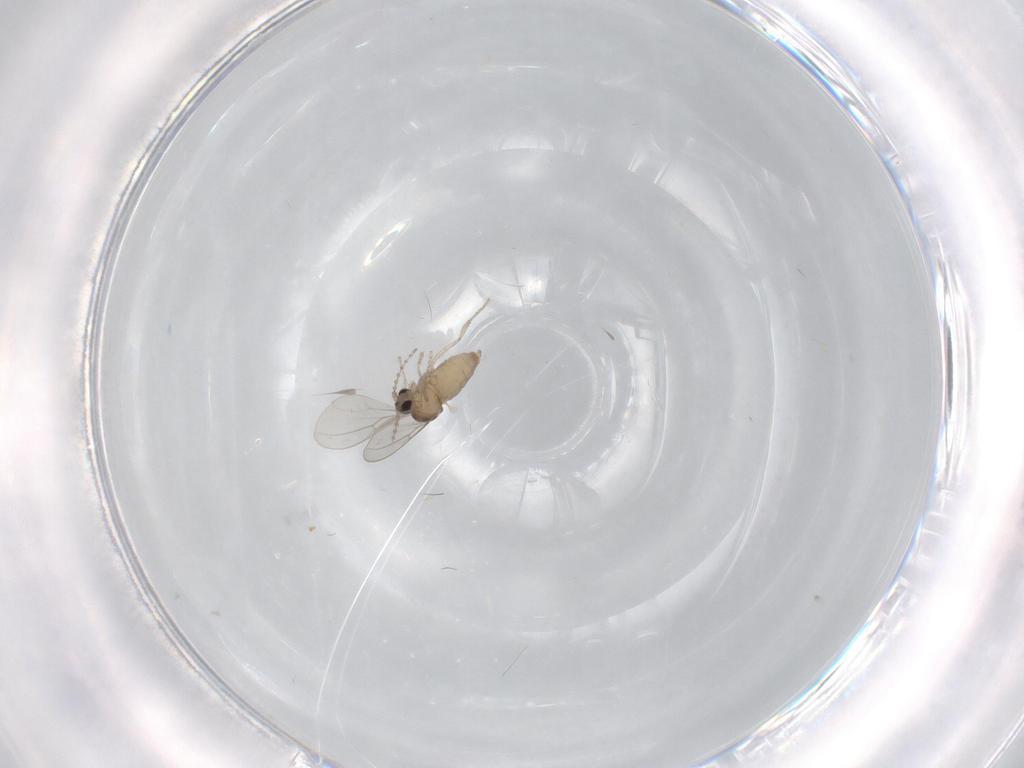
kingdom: Animalia
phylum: Arthropoda
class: Insecta
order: Diptera
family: Cecidomyiidae
